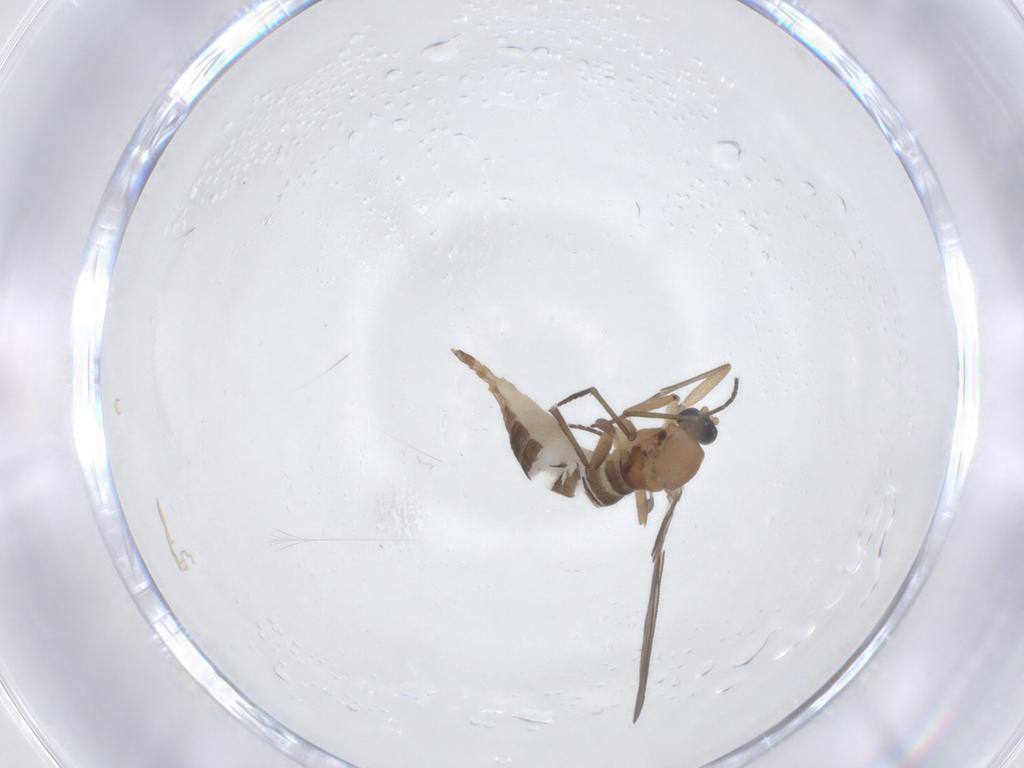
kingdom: Animalia
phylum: Arthropoda
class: Insecta
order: Diptera
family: Sciaridae
